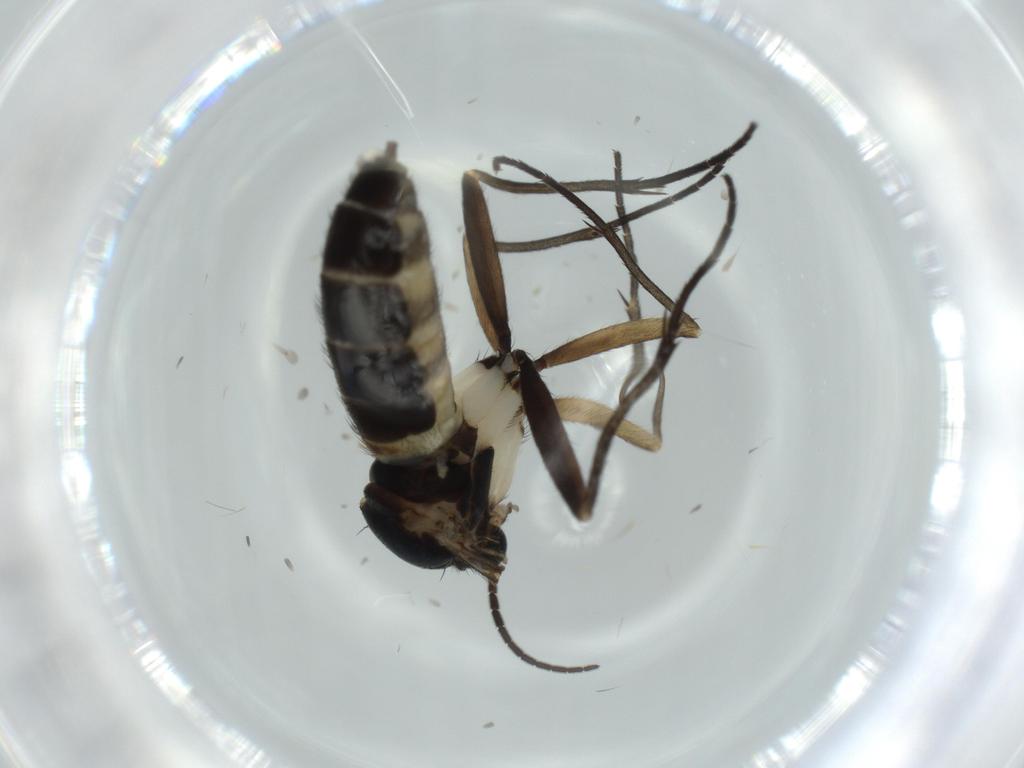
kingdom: Animalia
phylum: Arthropoda
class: Insecta
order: Diptera
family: Sciaridae
